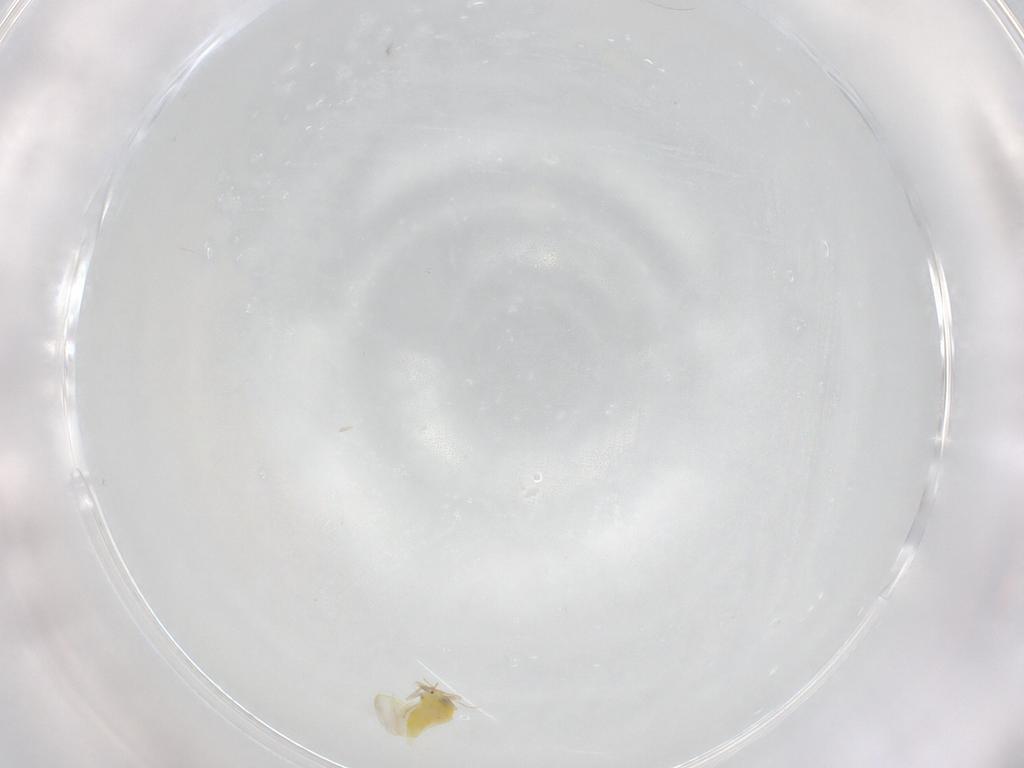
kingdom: Animalia
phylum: Arthropoda
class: Insecta
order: Hemiptera
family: Aleyrodidae
